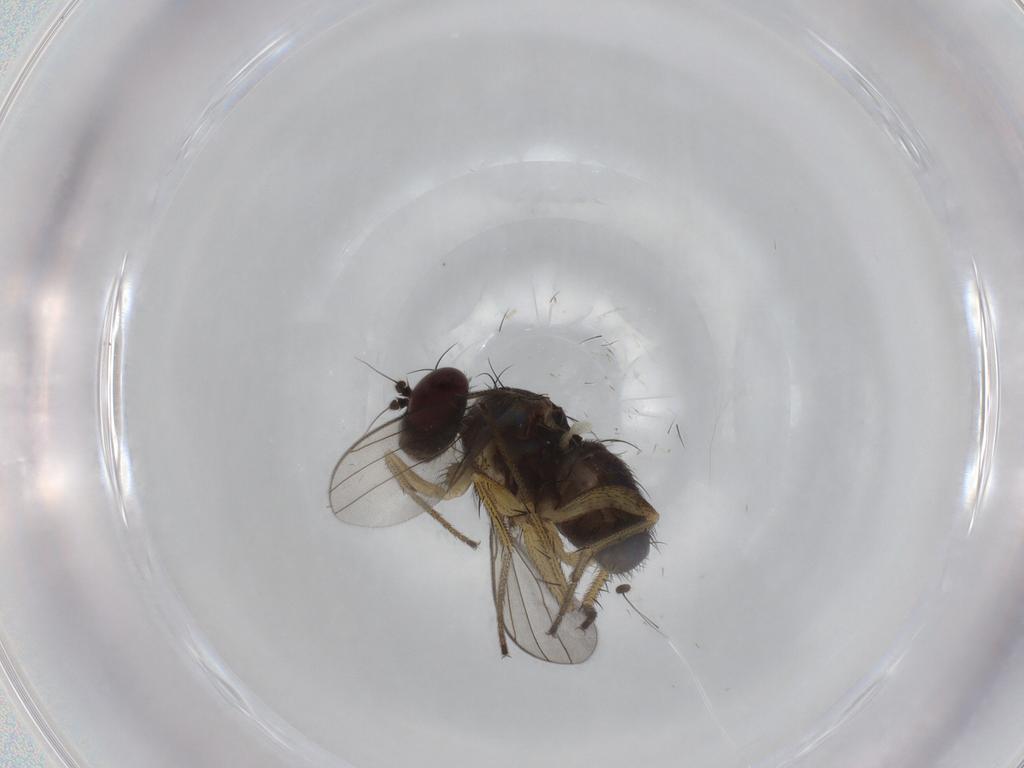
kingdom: Animalia
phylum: Arthropoda
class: Insecta
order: Diptera
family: Dolichopodidae
